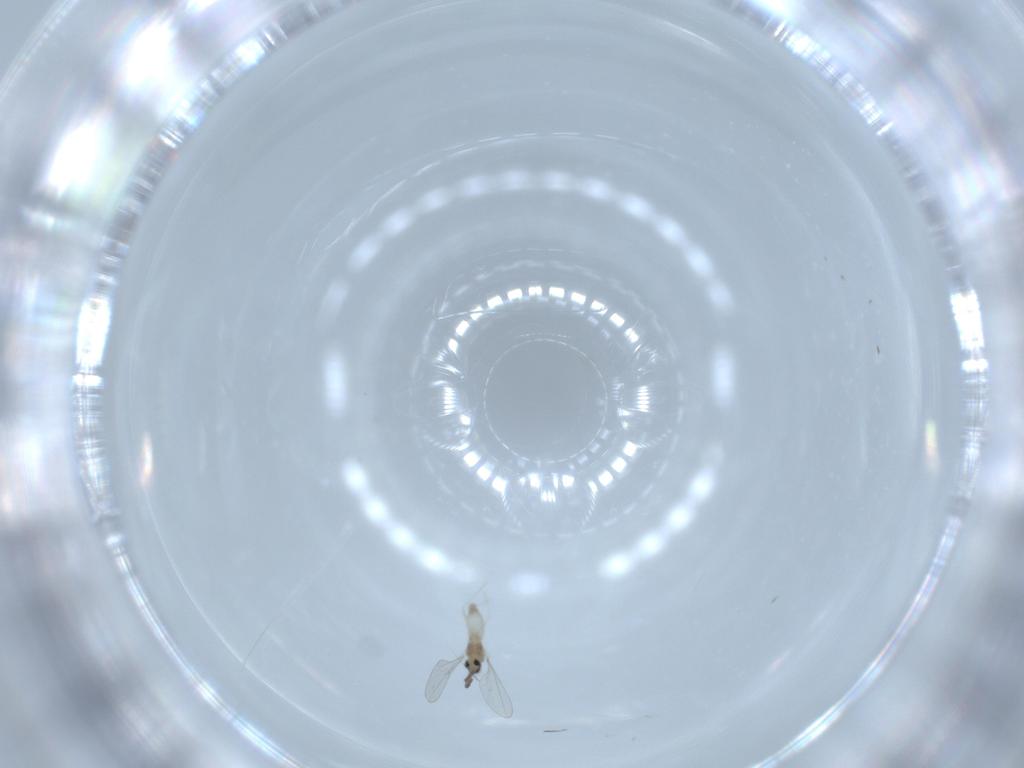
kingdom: Animalia
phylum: Arthropoda
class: Insecta
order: Diptera
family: Cecidomyiidae
